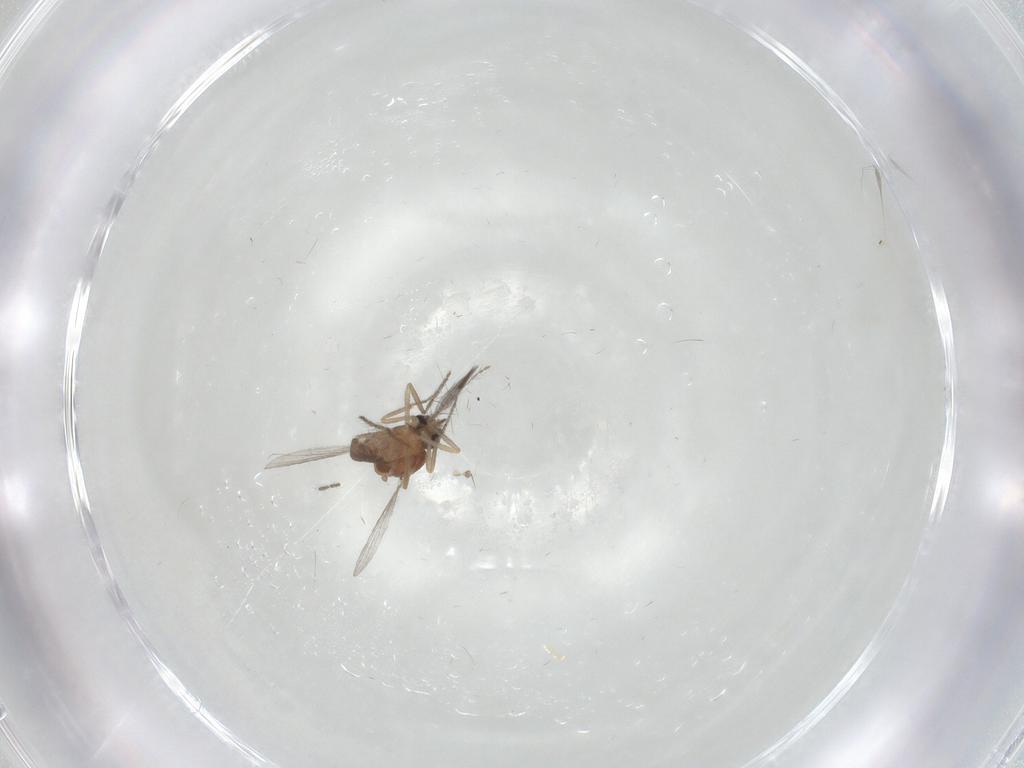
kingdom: Animalia
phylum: Arthropoda
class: Insecta
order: Diptera
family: Ceratopogonidae
